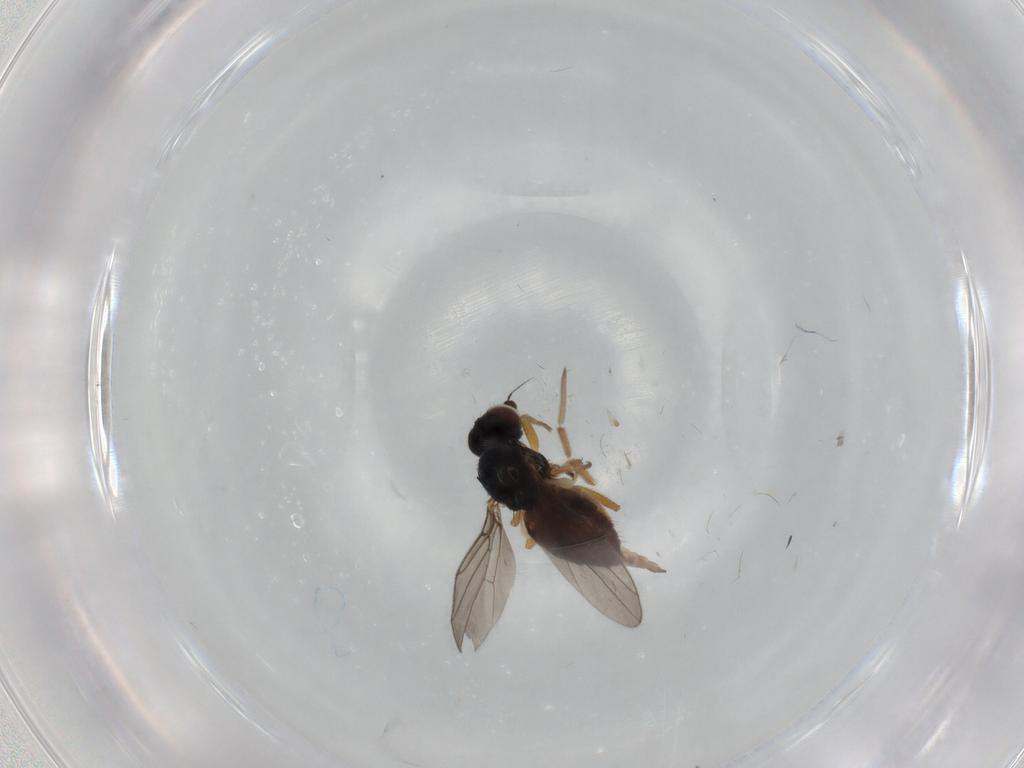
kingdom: Animalia
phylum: Arthropoda
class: Insecta
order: Diptera
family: Chloropidae
